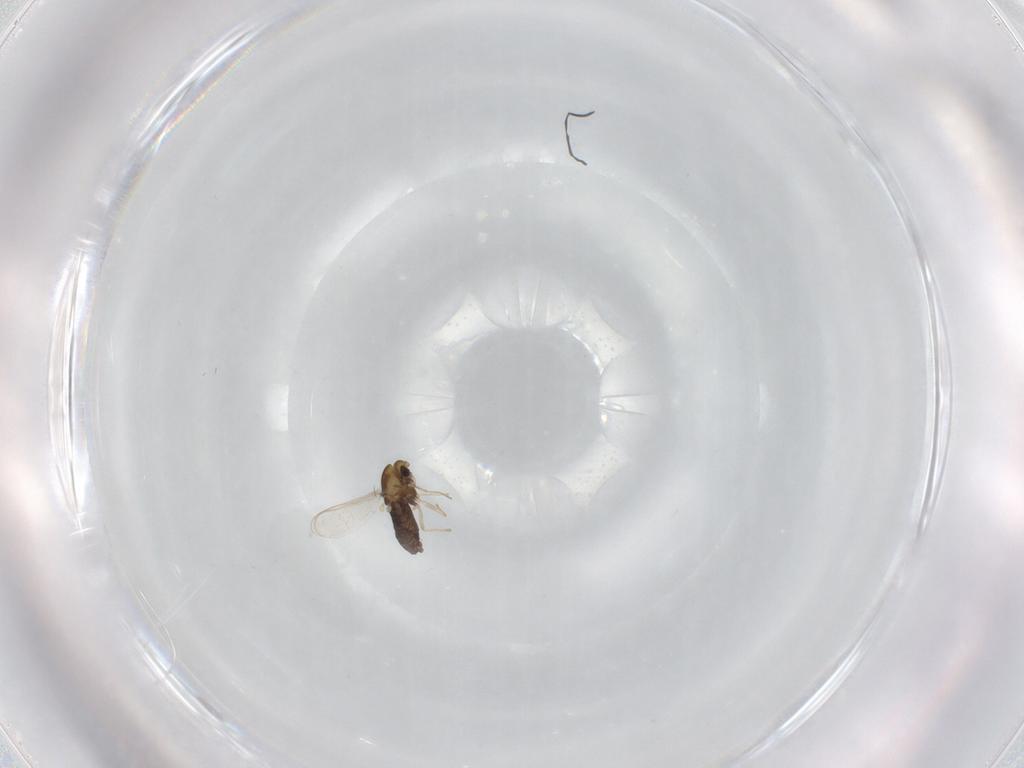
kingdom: Animalia
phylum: Arthropoda
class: Insecta
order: Diptera
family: Chironomidae
